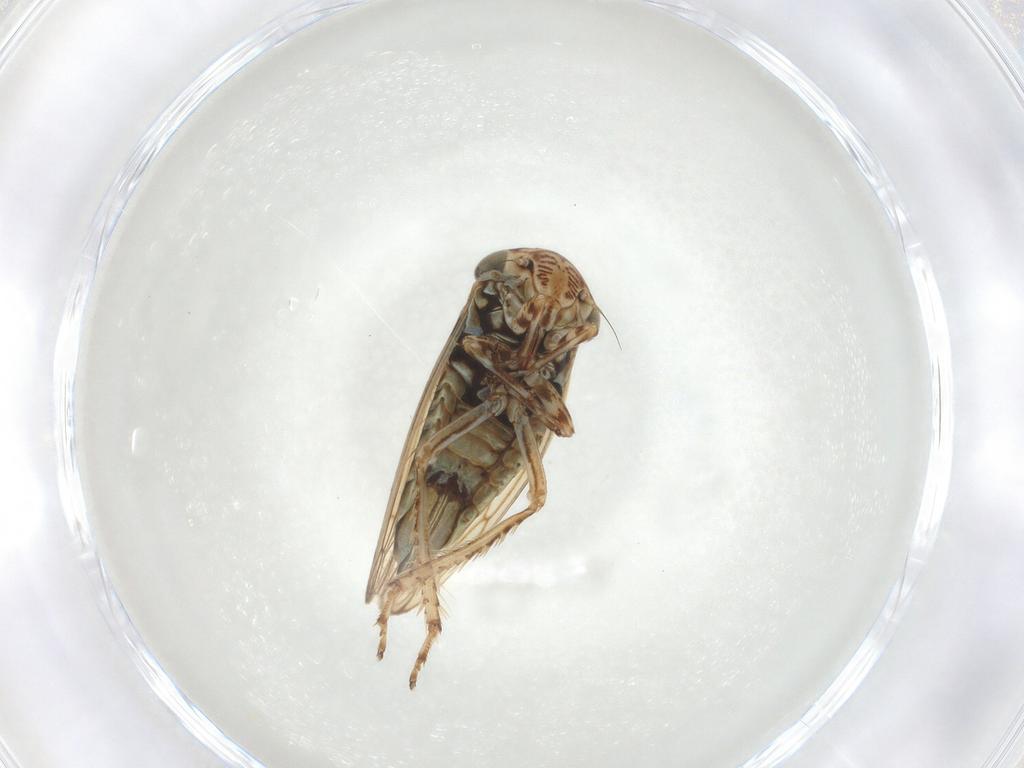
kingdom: Animalia
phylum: Arthropoda
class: Insecta
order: Hemiptera
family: Cicadellidae
